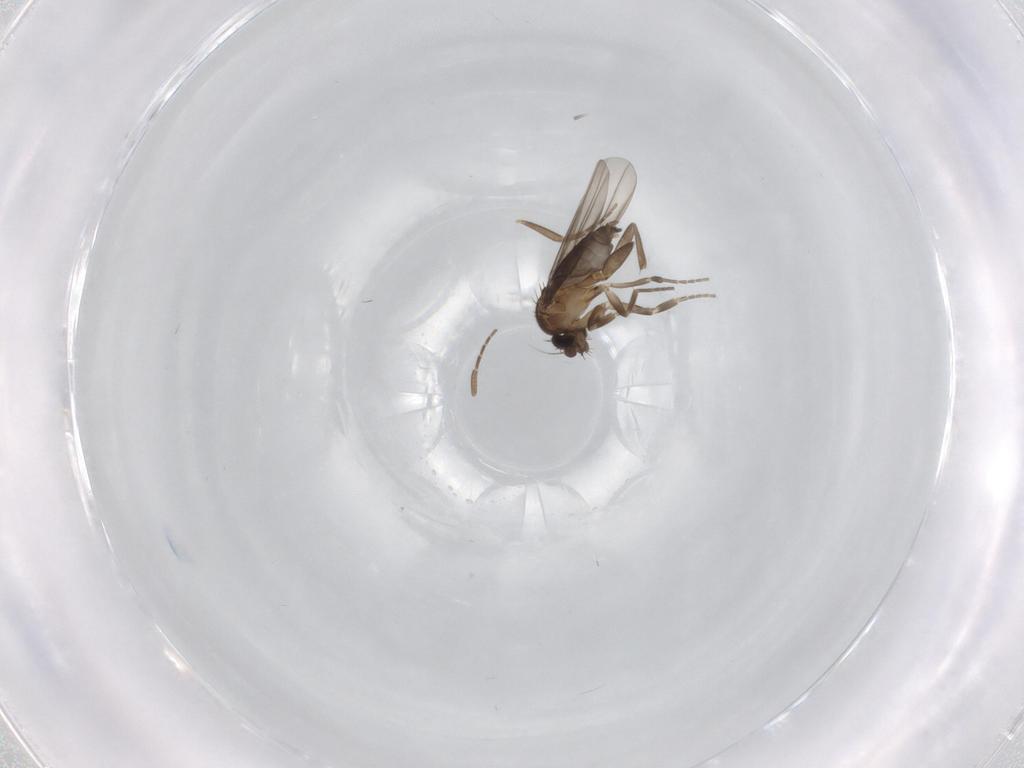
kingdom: Animalia
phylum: Arthropoda
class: Insecta
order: Diptera
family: Phoridae
